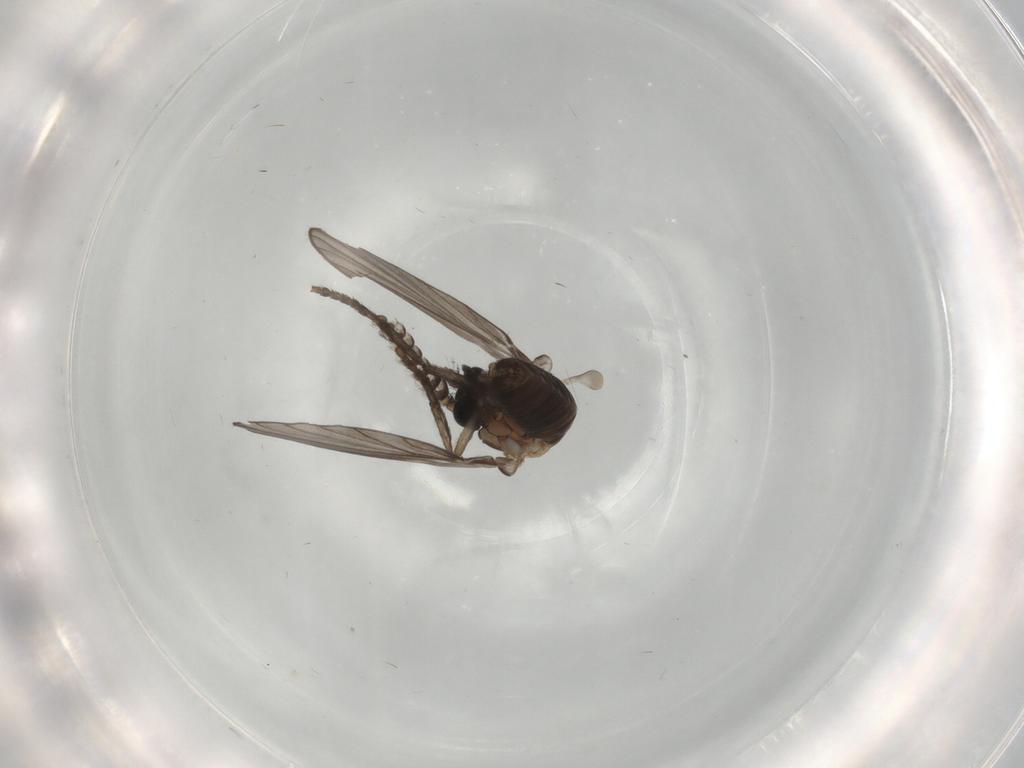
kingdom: Animalia
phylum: Arthropoda
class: Insecta
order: Diptera
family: Psychodidae
